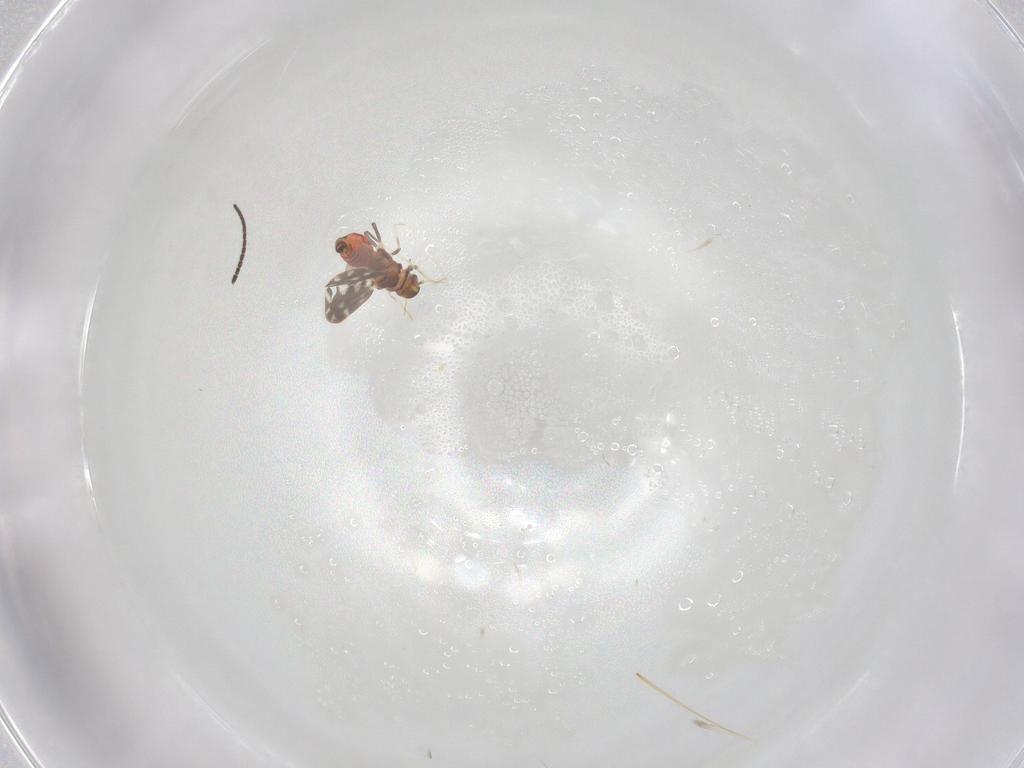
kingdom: Animalia
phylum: Arthropoda
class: Insecta
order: Hemiptera
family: Aleyrodidae
